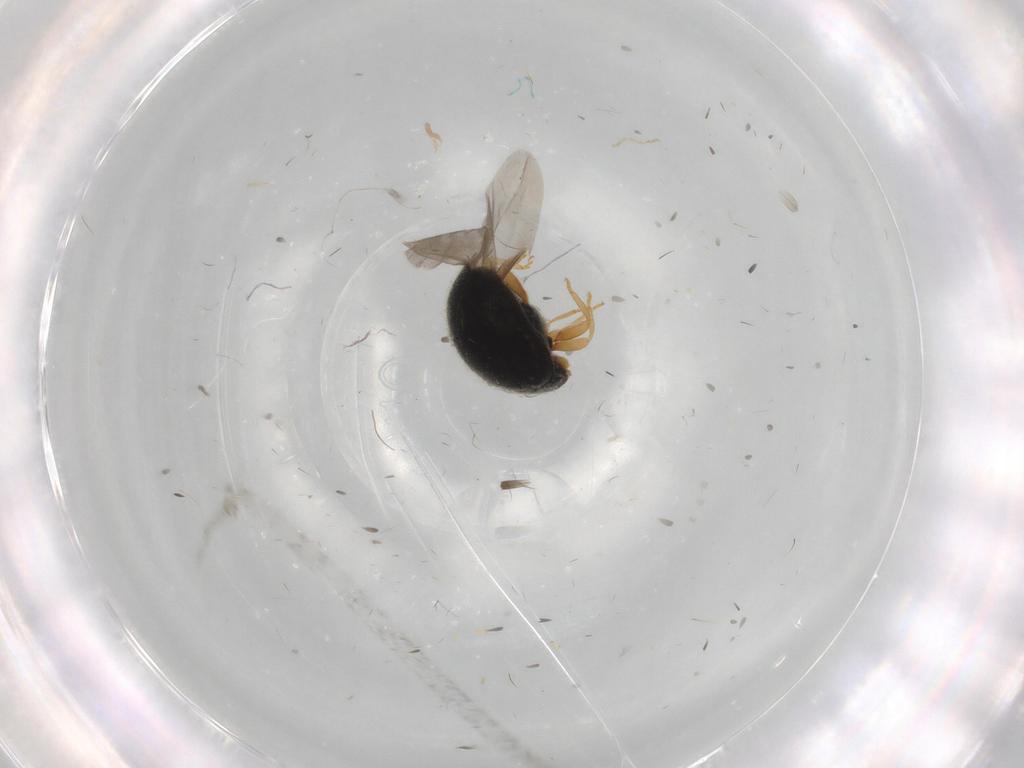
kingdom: Animalia
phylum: Arthropoda
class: Insecta
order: Coleoptera
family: Coccinellidae
